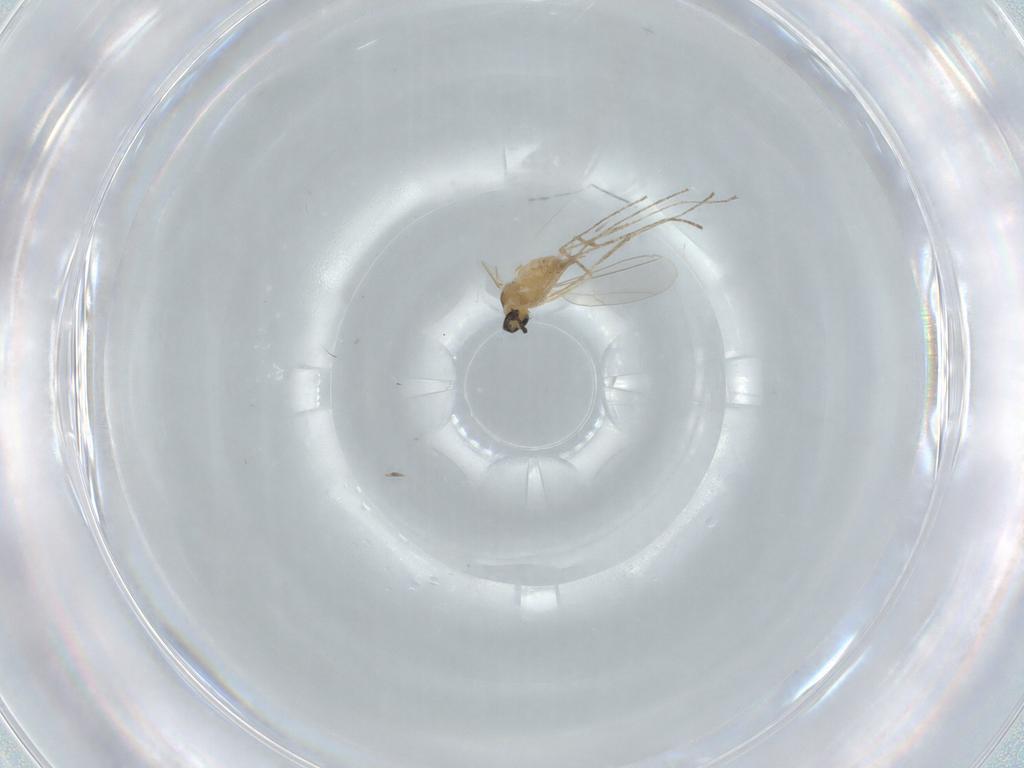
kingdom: Animalia
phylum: Arthropoda
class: Insecta
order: Diptera
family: Cecidomyiidae
